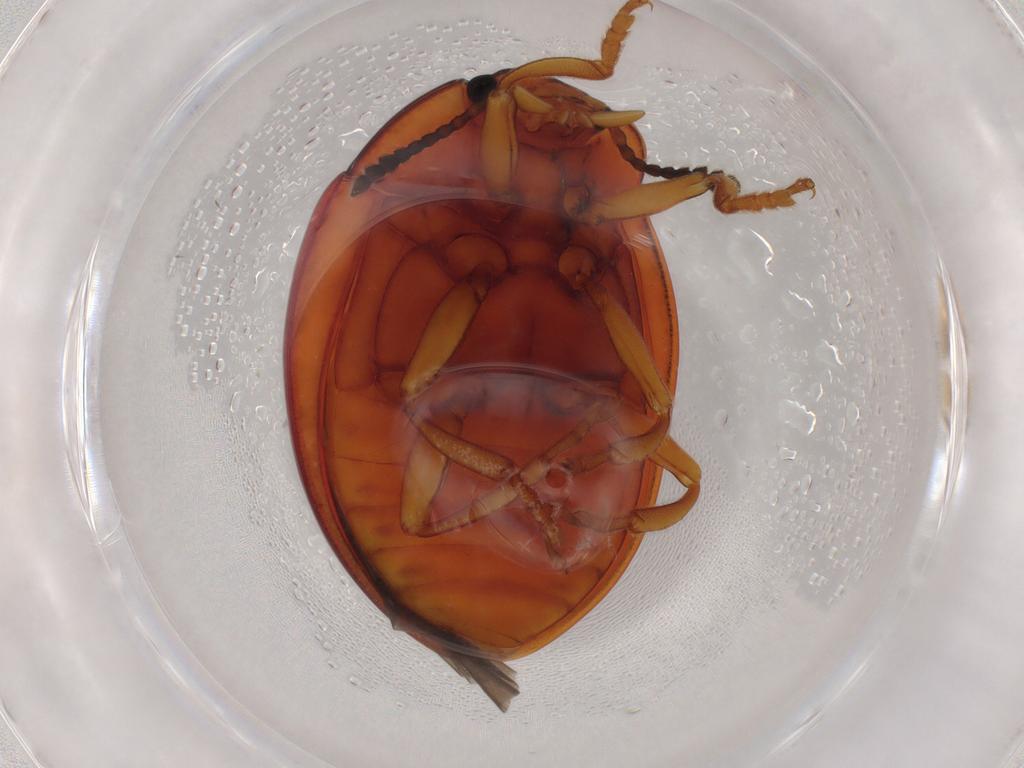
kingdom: Animalia
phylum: Arthropoda
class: Insecta
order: Coleoptera
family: Erotylidae
